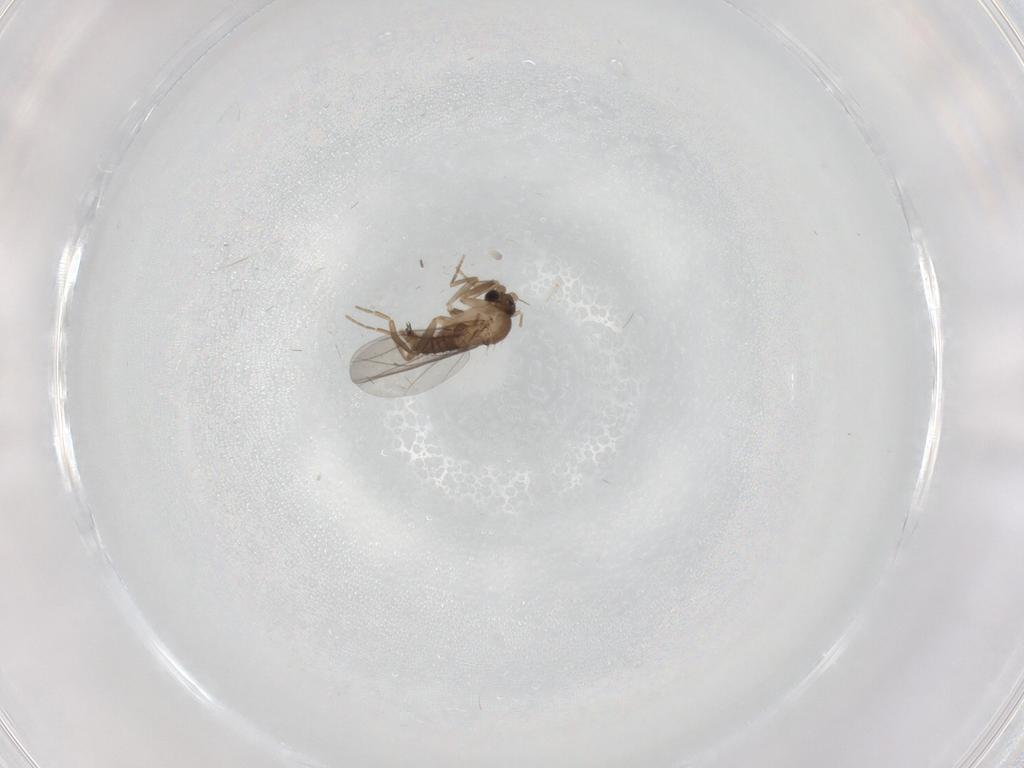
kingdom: Animalia
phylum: Arthropoda
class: Insecta
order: Diptera
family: Sciaridae
